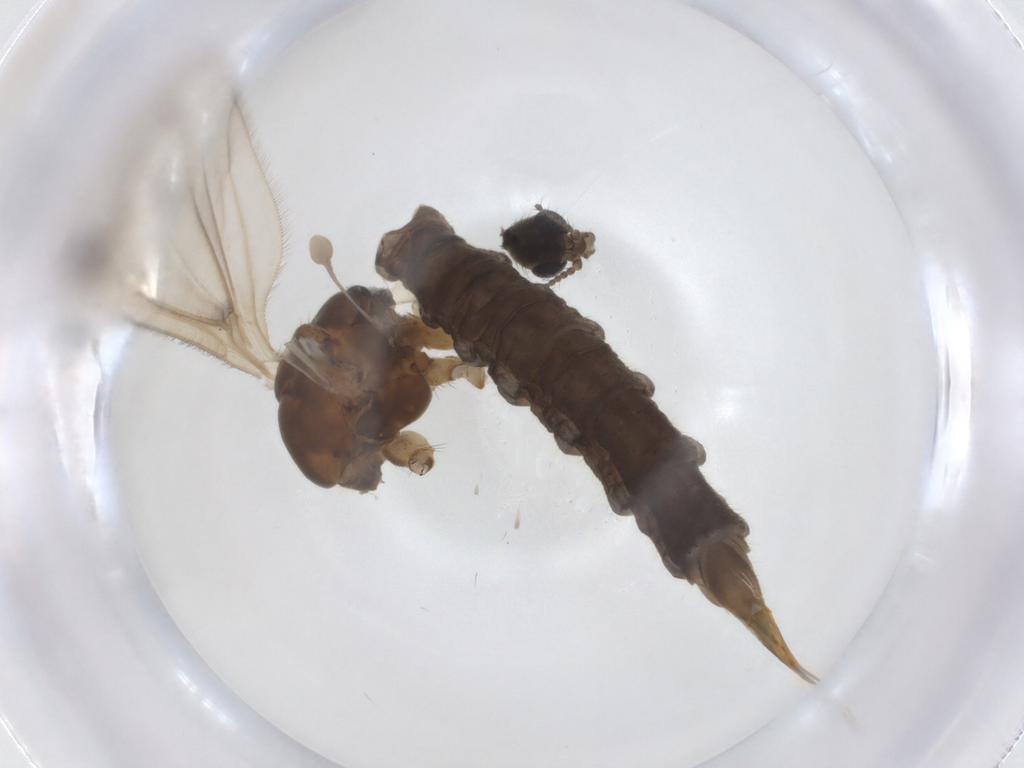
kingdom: Animalia
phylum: Arthropoda
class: Insecta
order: Diptera
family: Limoniidae
